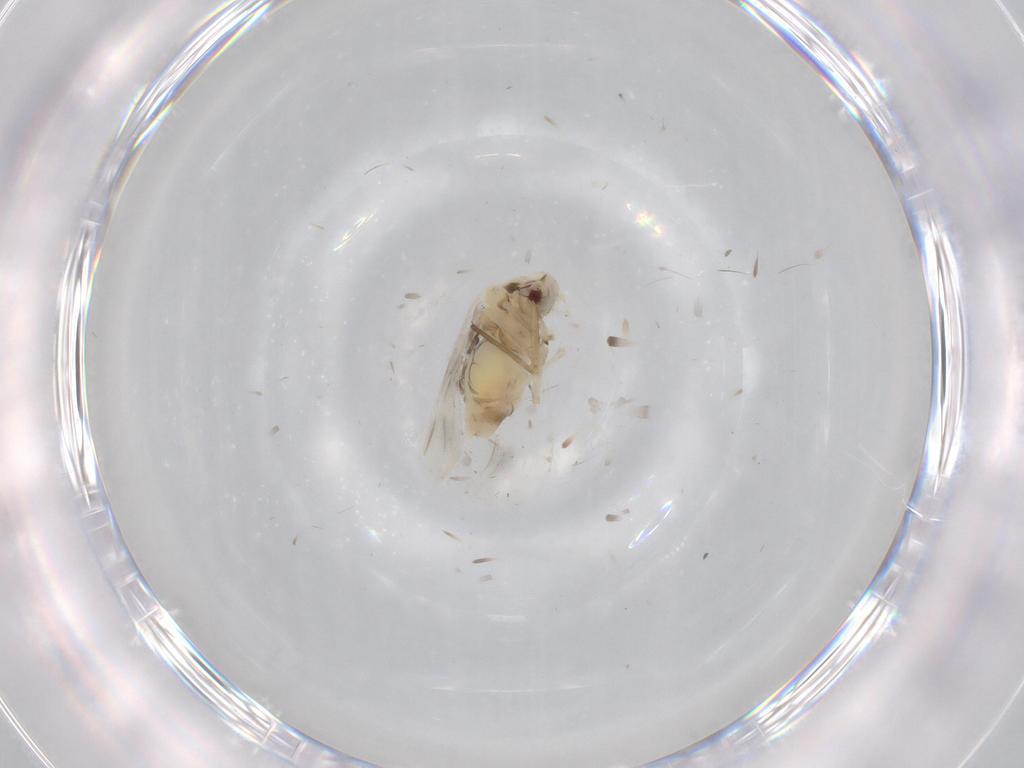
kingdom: Animalia
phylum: Arthropoda
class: Insecta
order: Hemiptera
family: Aleyrodidae
